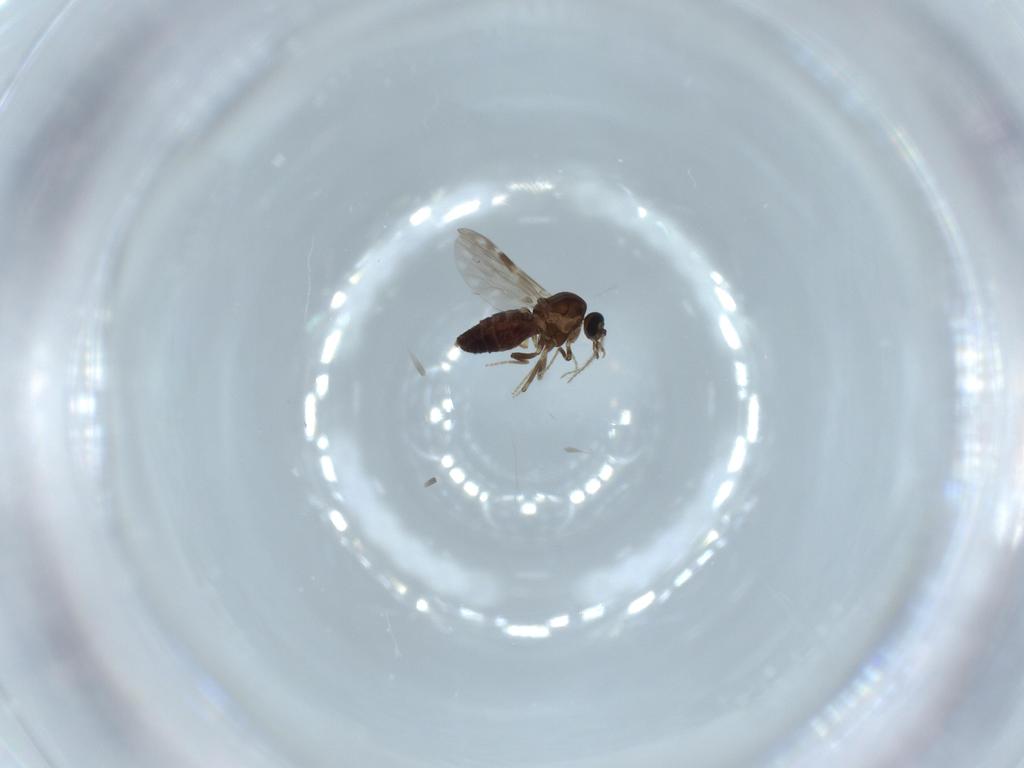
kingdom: Animalia
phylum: Arthropoda
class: Insecta
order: Diptera
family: Ceratopogonidae
